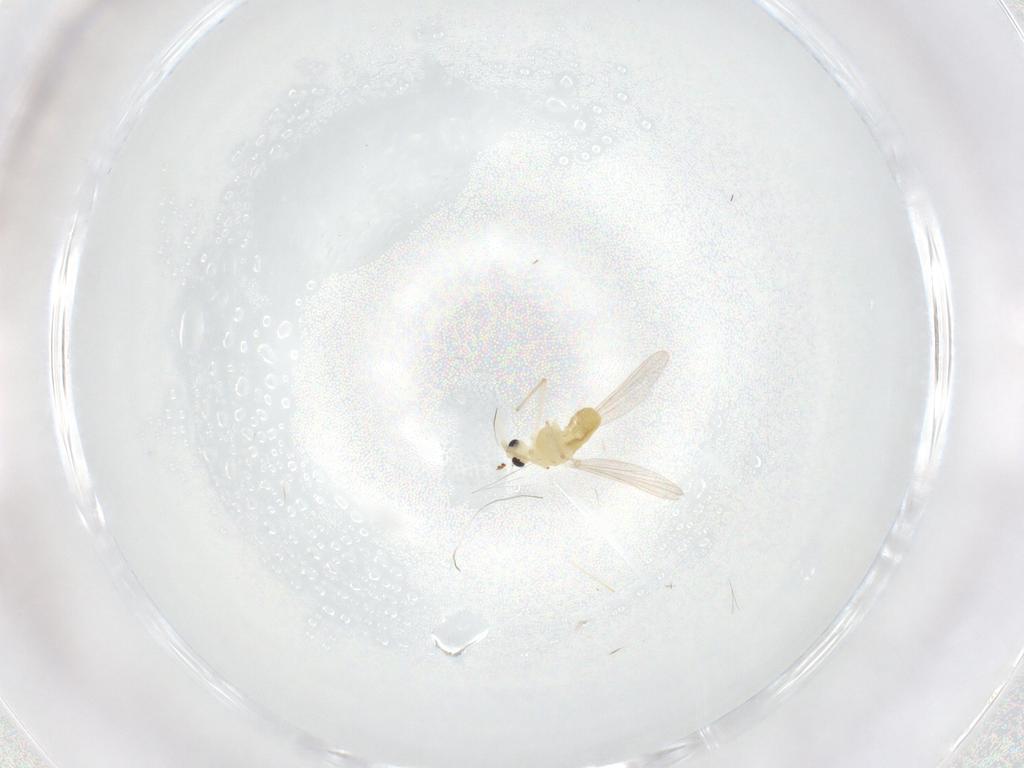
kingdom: Animalia
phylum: Arthropoda
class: Insecta
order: Diptera
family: Chironomidae
